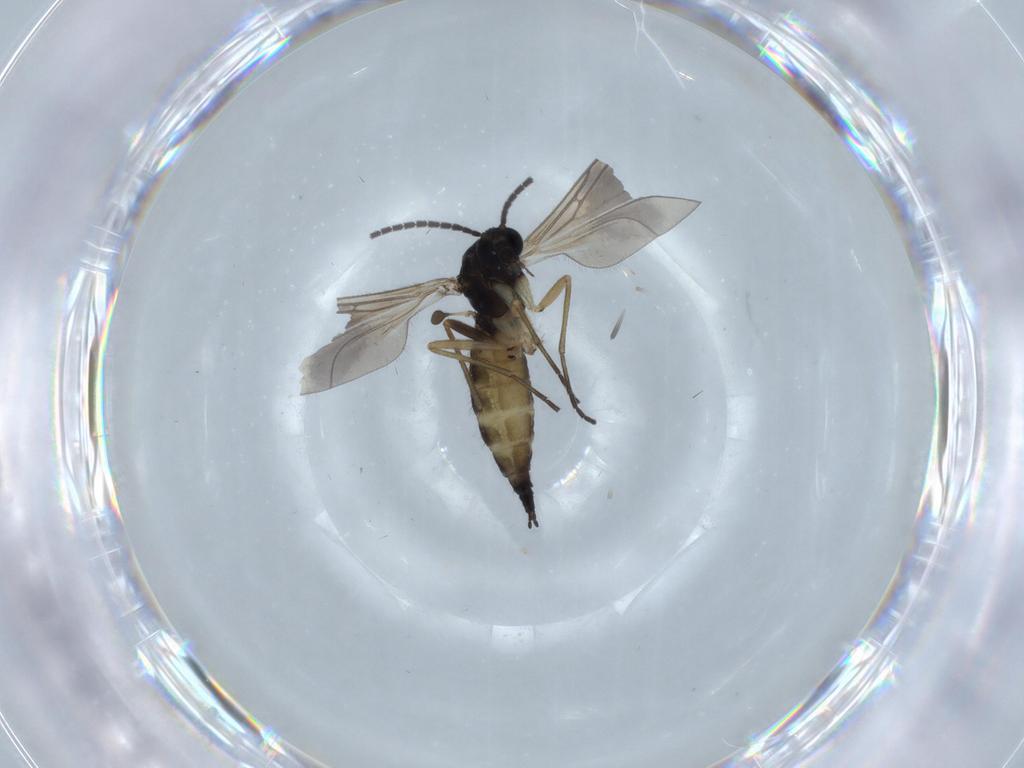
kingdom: Animalia
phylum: Arthropoda
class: Insecta
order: Diptera
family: Sciaridae
